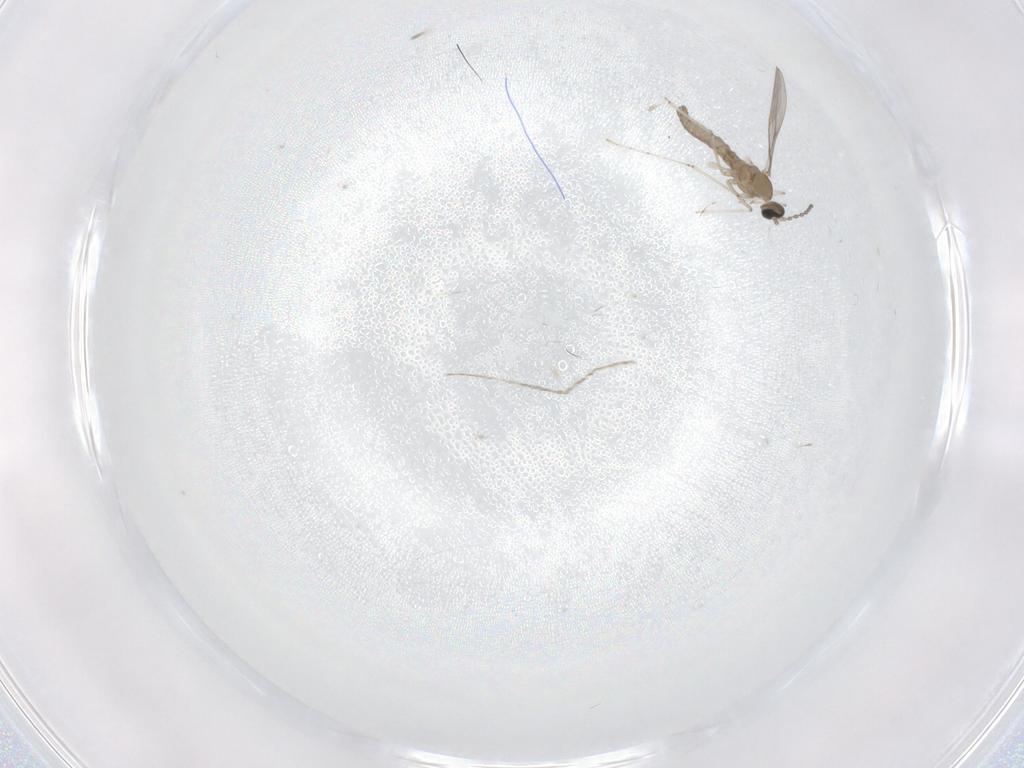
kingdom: Animalia
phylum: Arthropoda
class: Insecta
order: Diptera
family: Cecidomyiidae
